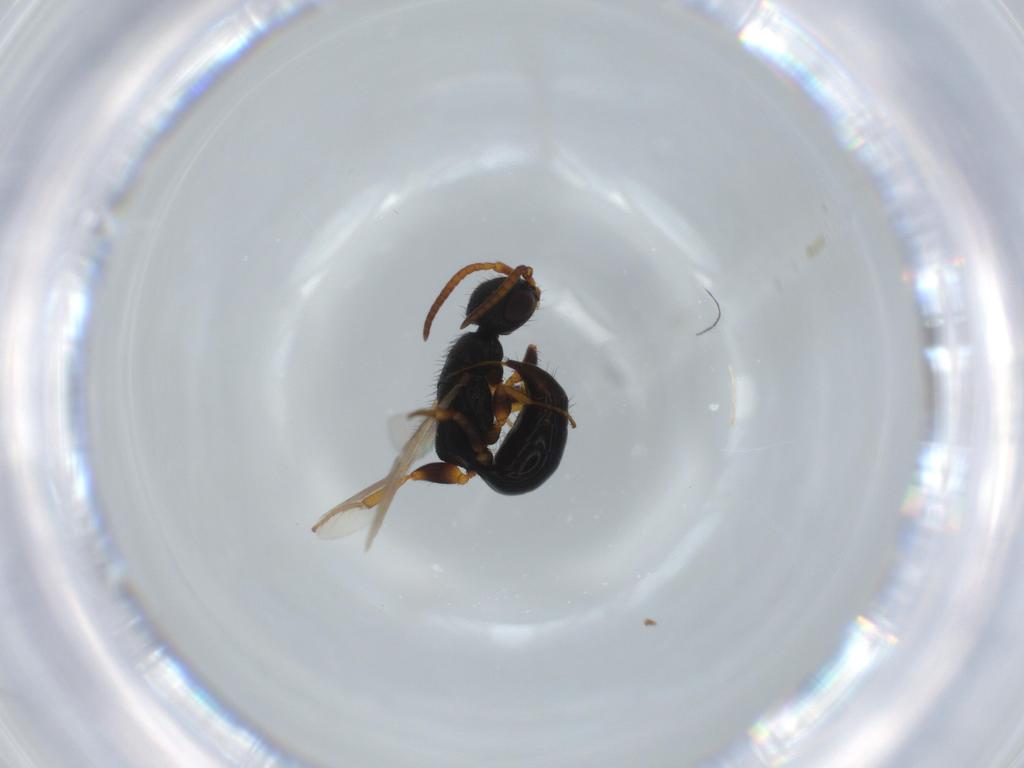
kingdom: Animalia
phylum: Arthropoda
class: Insecta
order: Hymenoptera
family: Bethylidae
